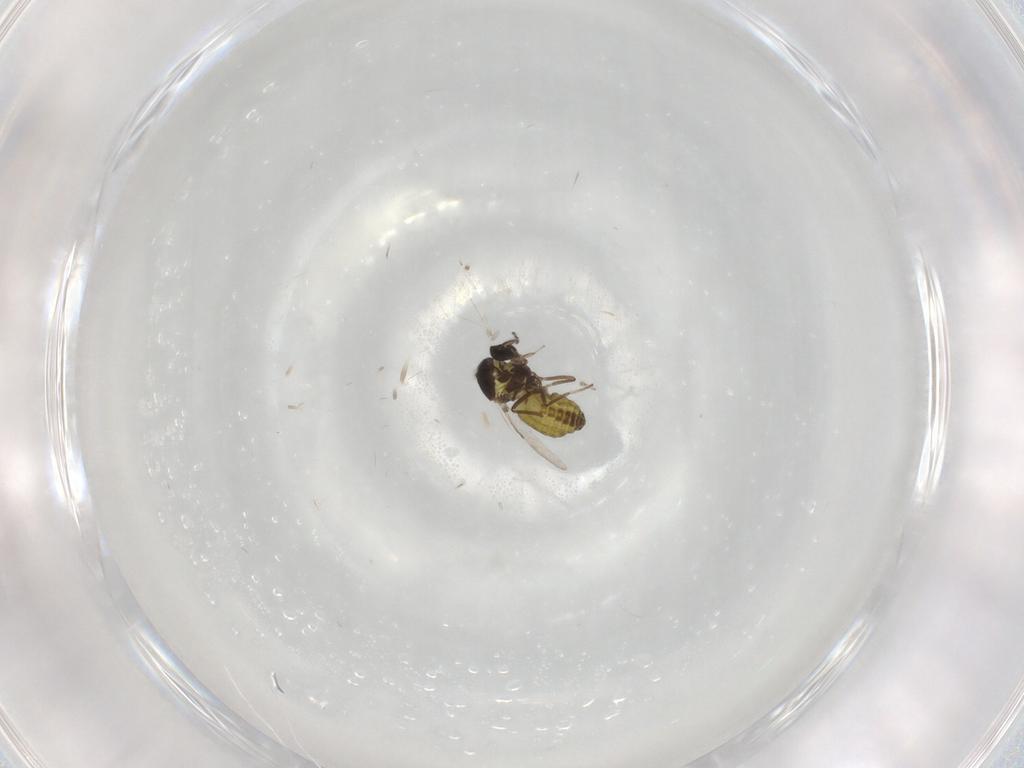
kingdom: Animalia
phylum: Arthropoda
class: Insecta
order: Diptera
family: Ceratopogonidae
